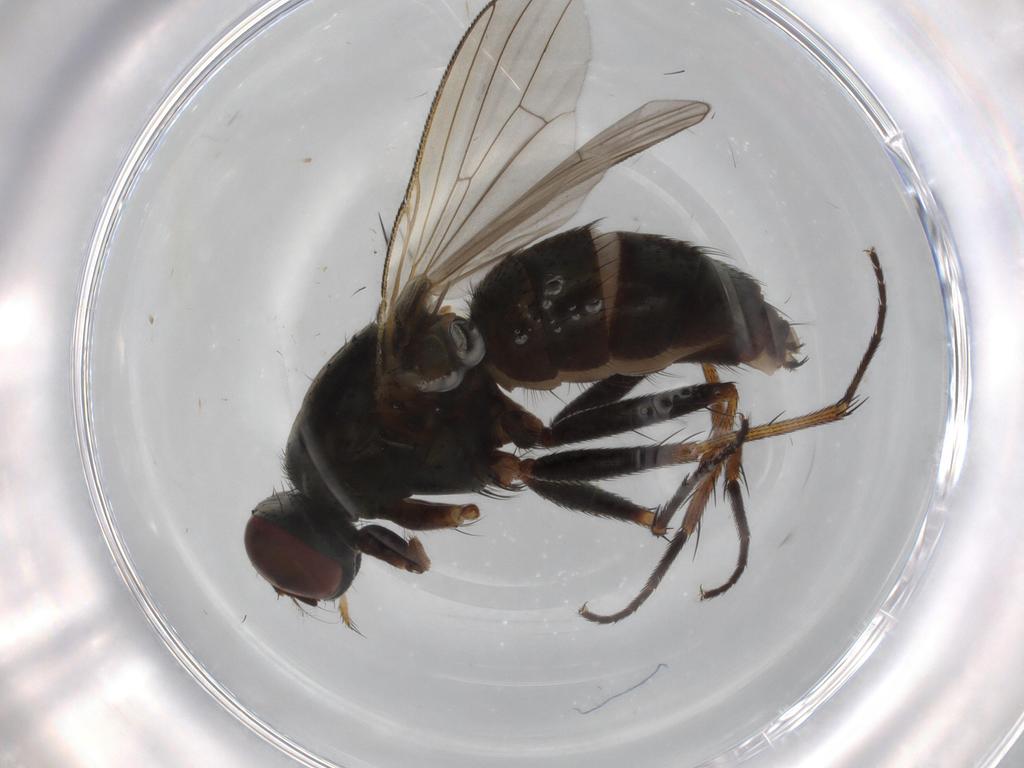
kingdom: Animalia
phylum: Arthropoda
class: Insecta
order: Diptera
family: Muscidae
